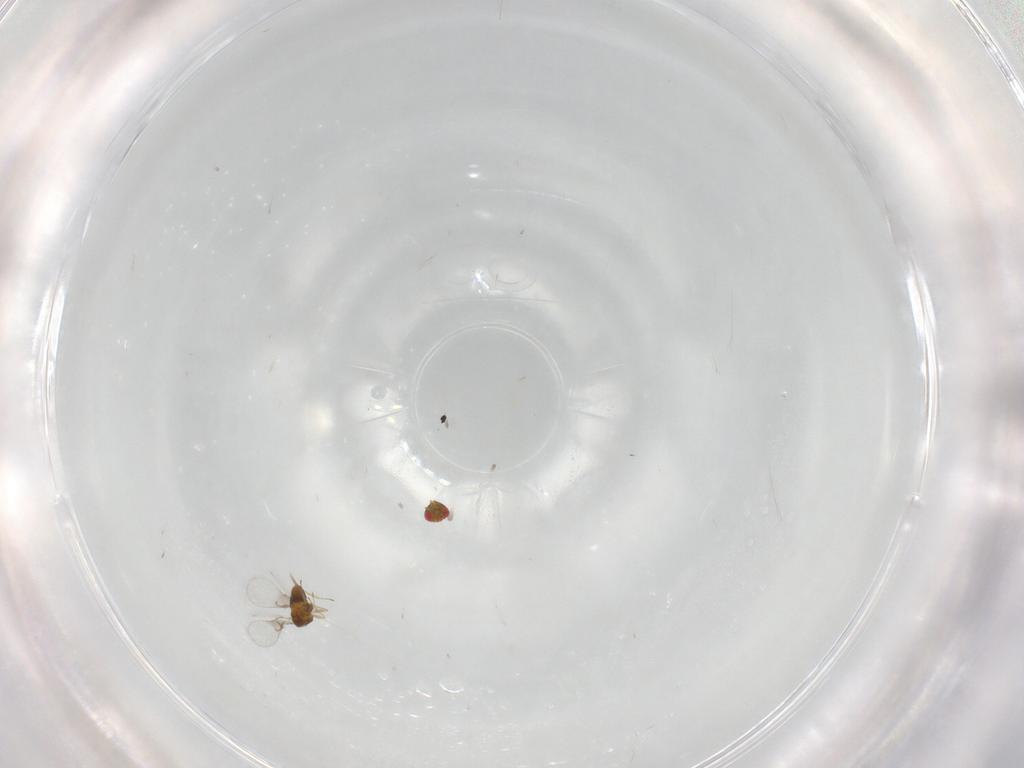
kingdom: Animalia
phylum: Arthropoda
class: Insecta
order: Hymenoptera
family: Trichogrammatidae
